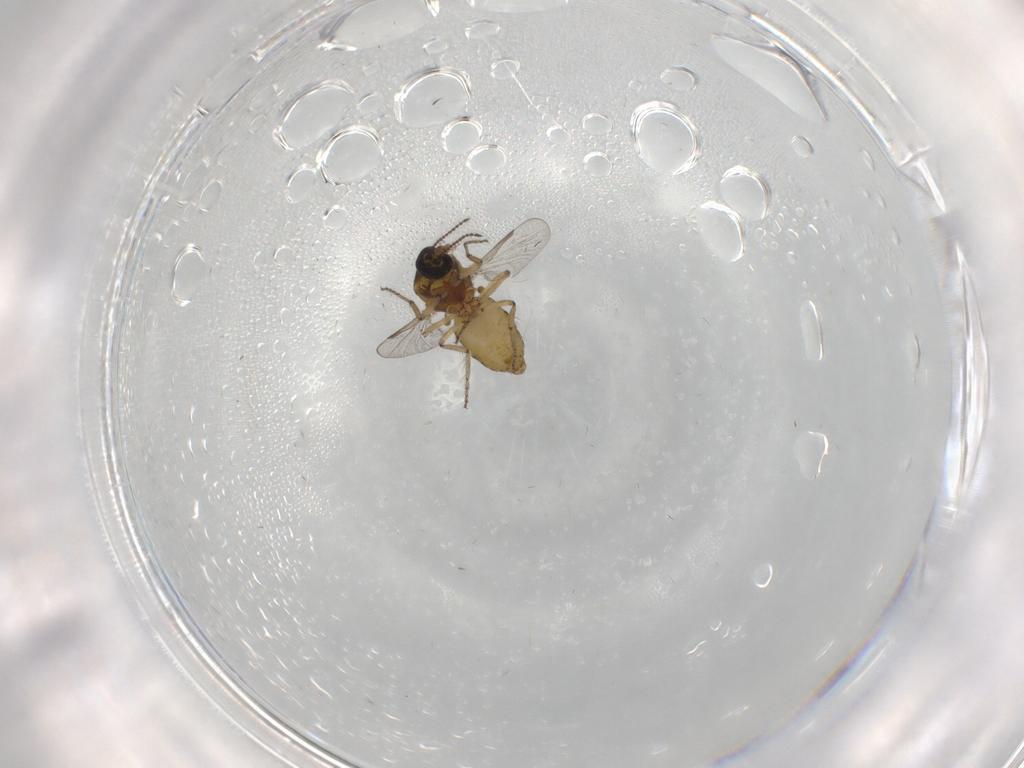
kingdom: Animalia
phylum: Arthropoda
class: Insecta
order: Diptera
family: Ceratopogonidae
